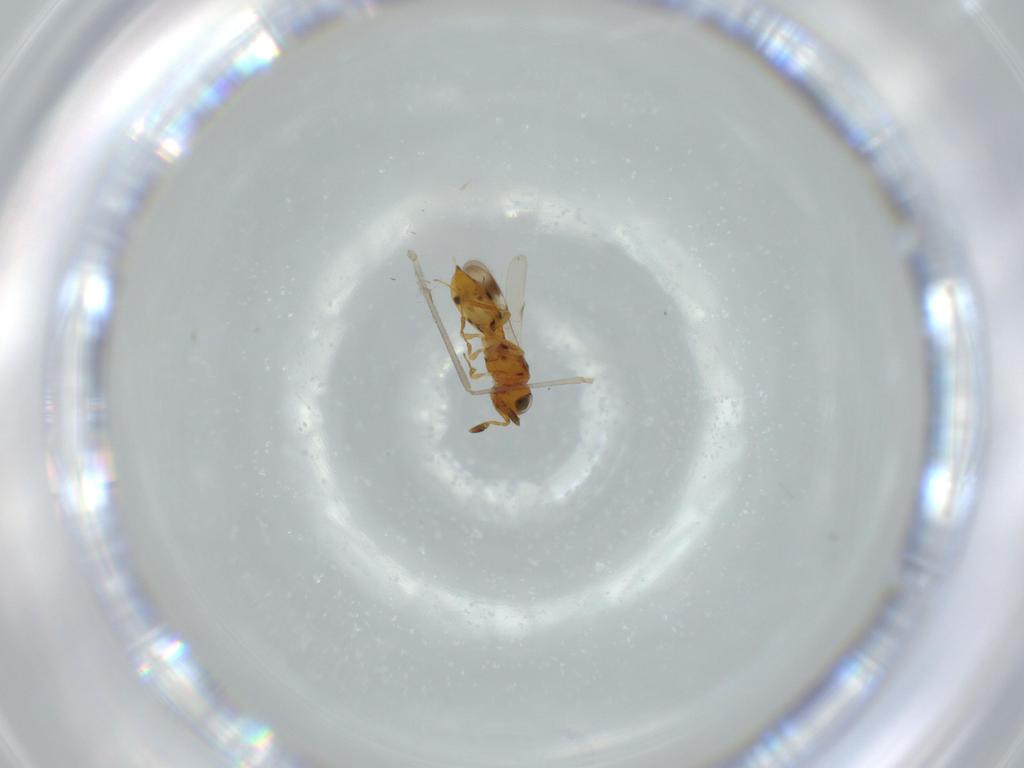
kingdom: Animalia
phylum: Arthropoda
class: Insecta
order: Hymenoptera
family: Scelionidae
